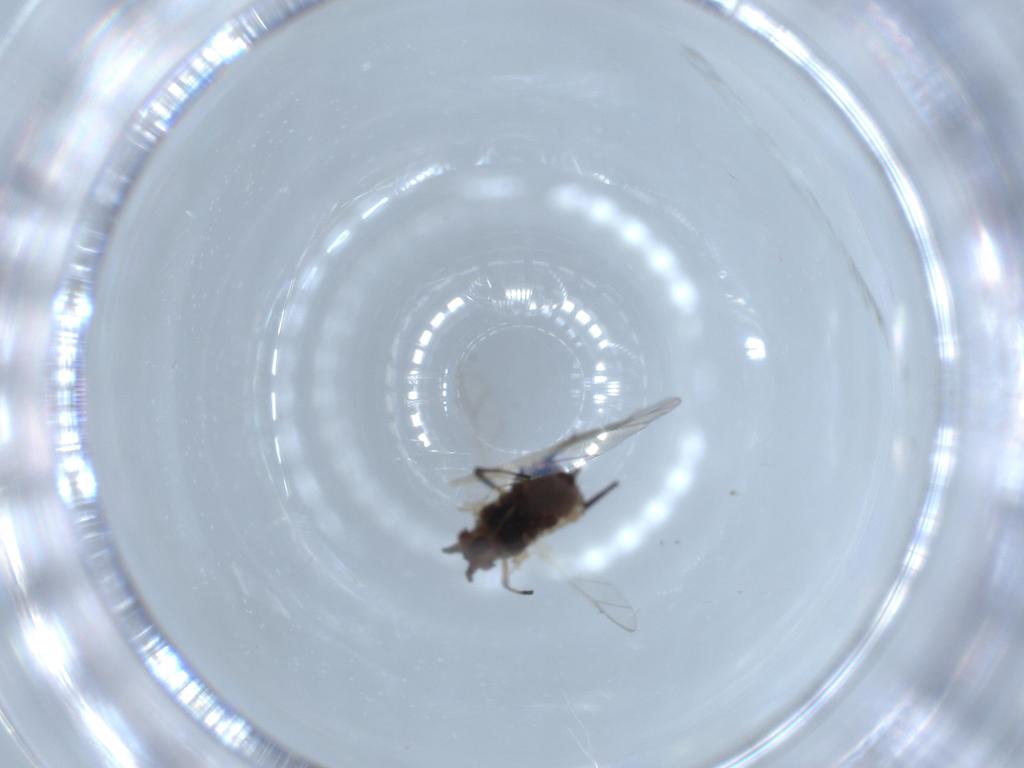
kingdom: Animalia
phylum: Arthropoda
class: Insecta
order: Hemiptera
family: Aphididae
